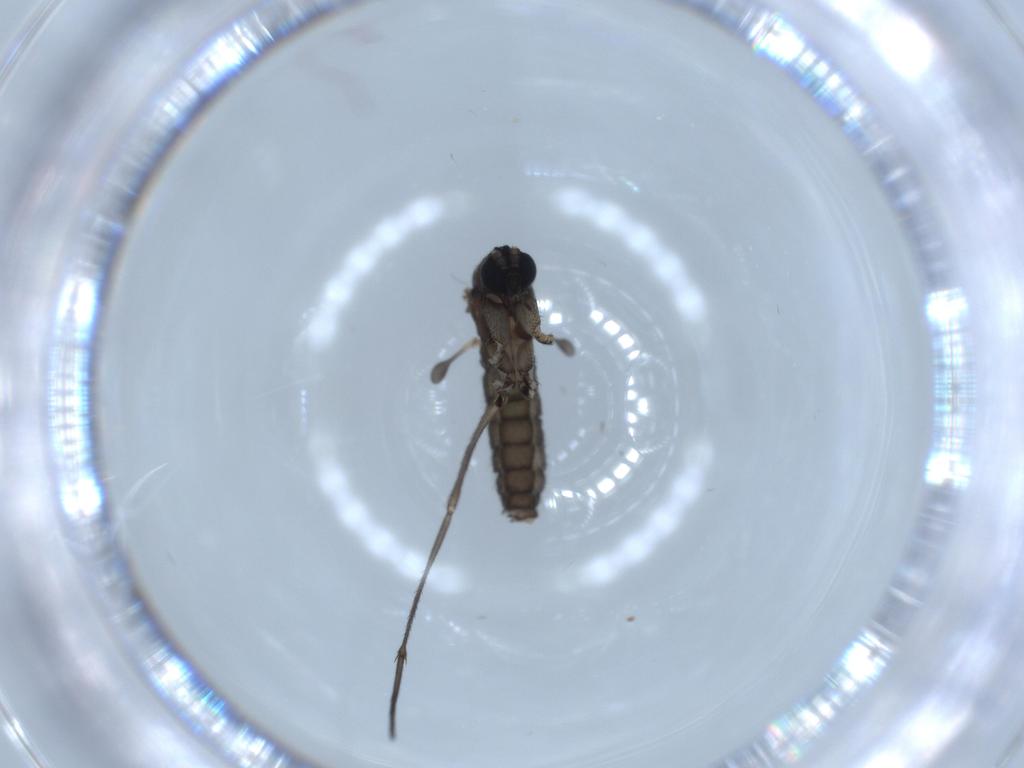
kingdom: Animalia
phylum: Arthropoda
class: Insecta
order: Diptera
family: Sciaridae
